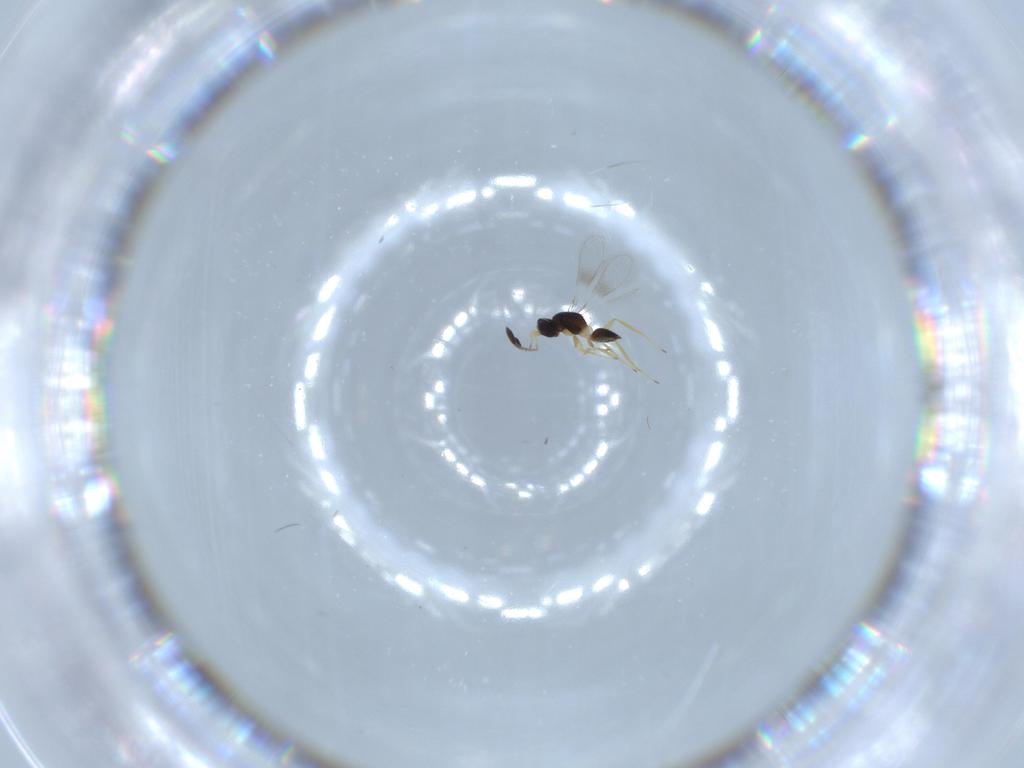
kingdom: Animalia
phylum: Arthropoda
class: Insecta
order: Hymenoptera
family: Mymaridae
